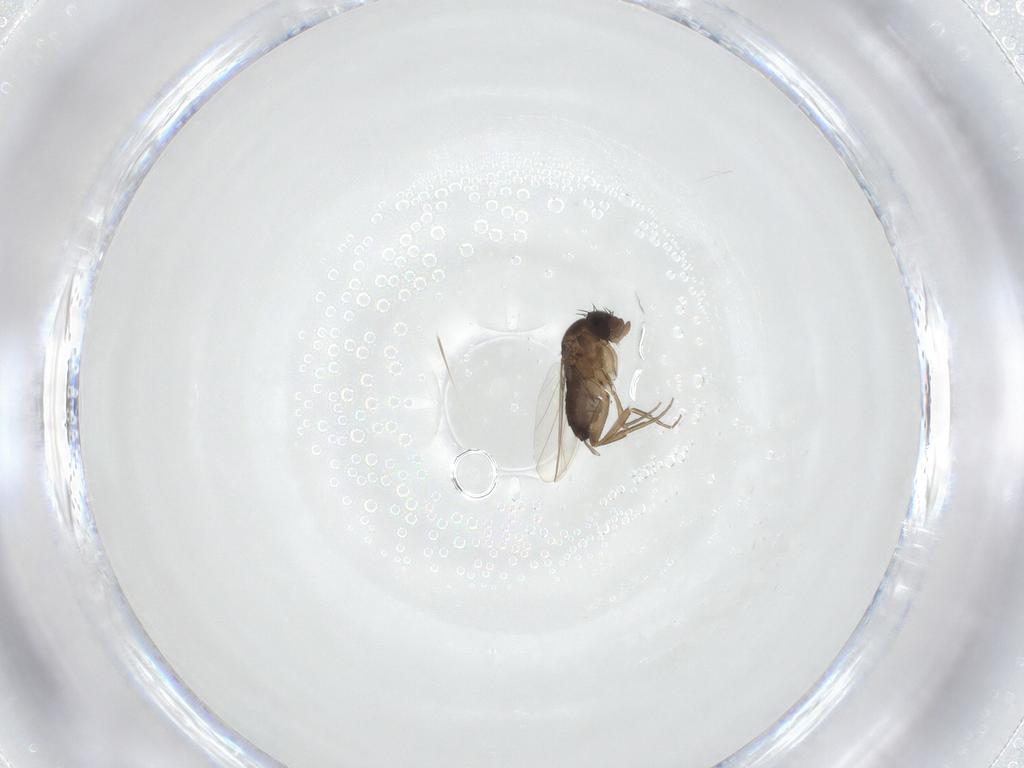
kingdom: Animalia
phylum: Arthropoda
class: Insecta
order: Diptera
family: Phoridae
